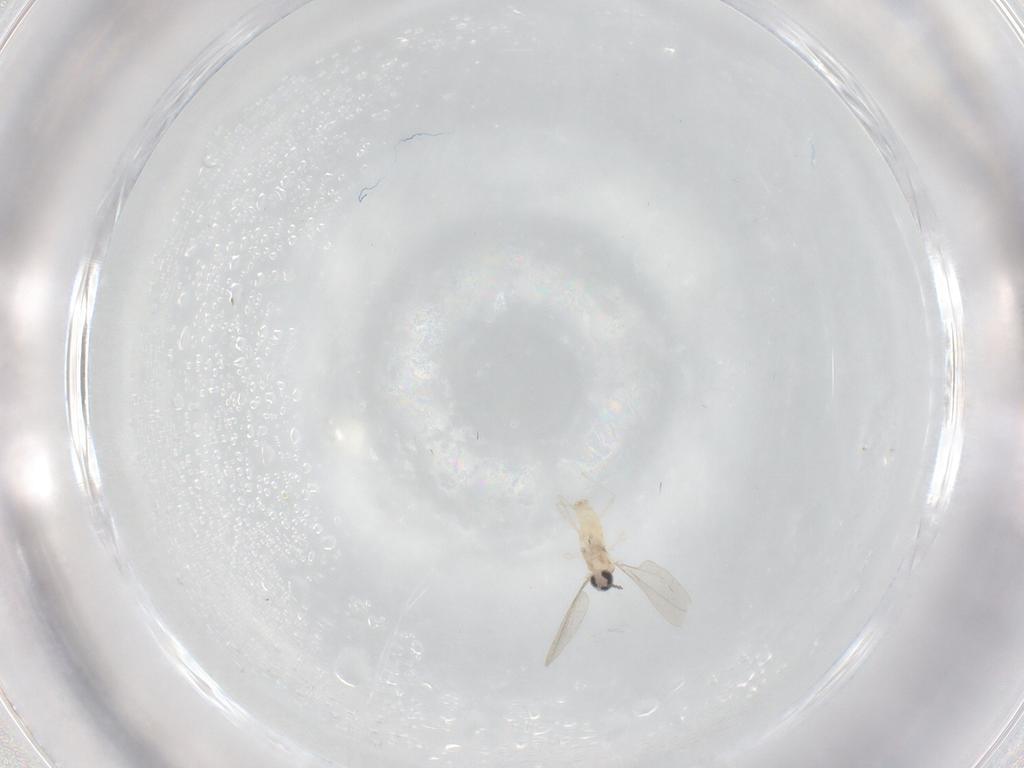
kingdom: Animalia
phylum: Arthropoda
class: Insecta
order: Diptera
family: Cecidomyiidae
